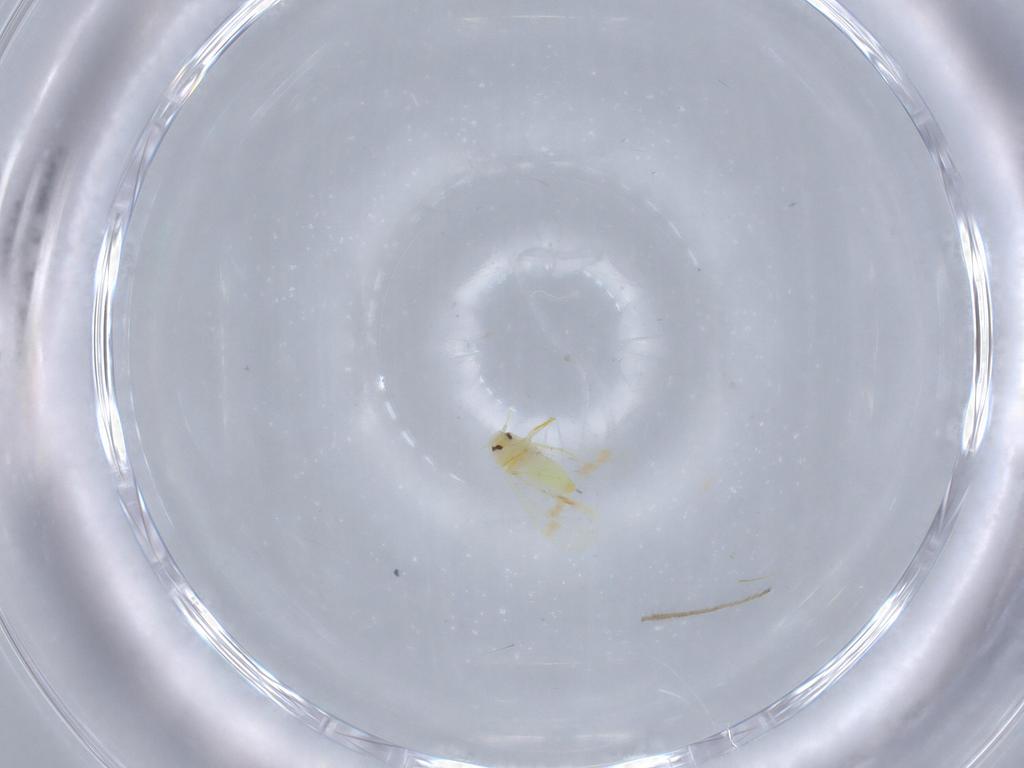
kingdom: Animalia
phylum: Arthropoda
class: Insecta
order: Hemiptera
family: Aleyrodidae
